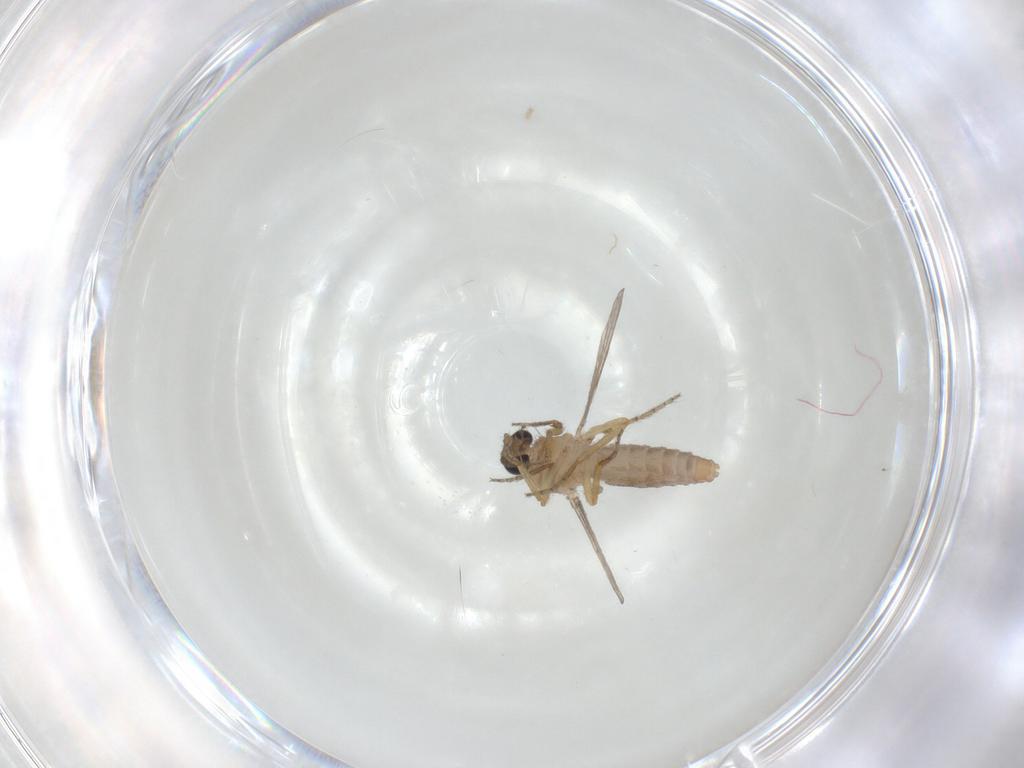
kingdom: Animalia
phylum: Arthropoda
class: Insecta
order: Diptera
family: Ceratopogonidae
